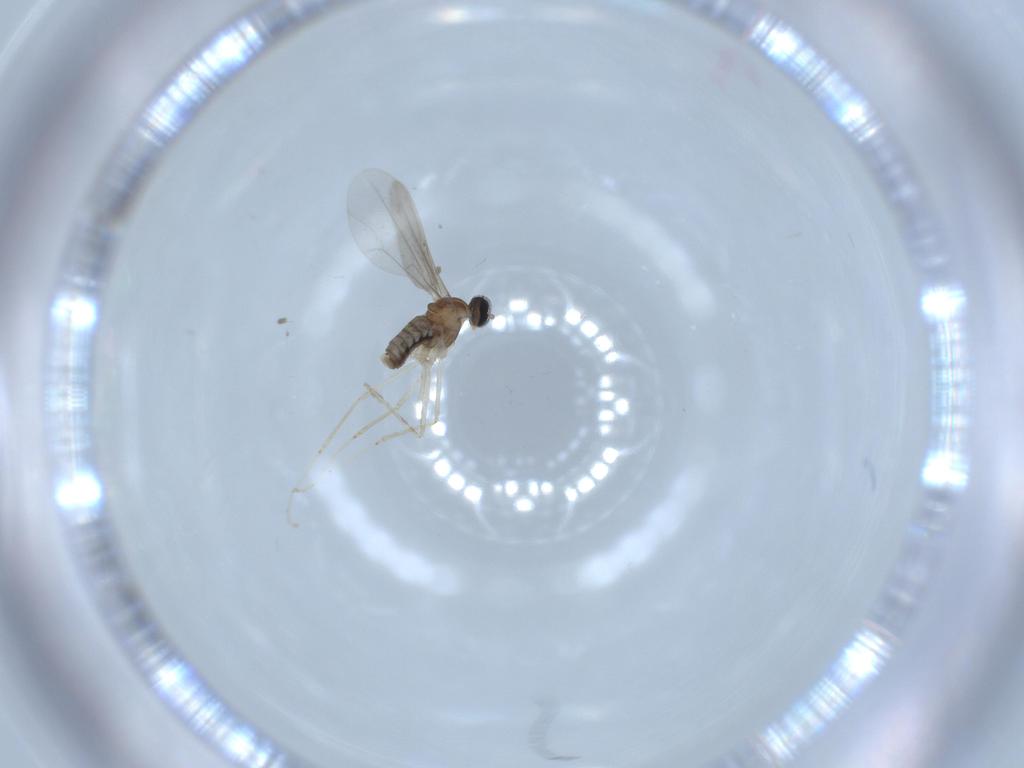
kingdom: Animalia
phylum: Arthropoda
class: Insecta
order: Diptera
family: Cecidomyiidae
